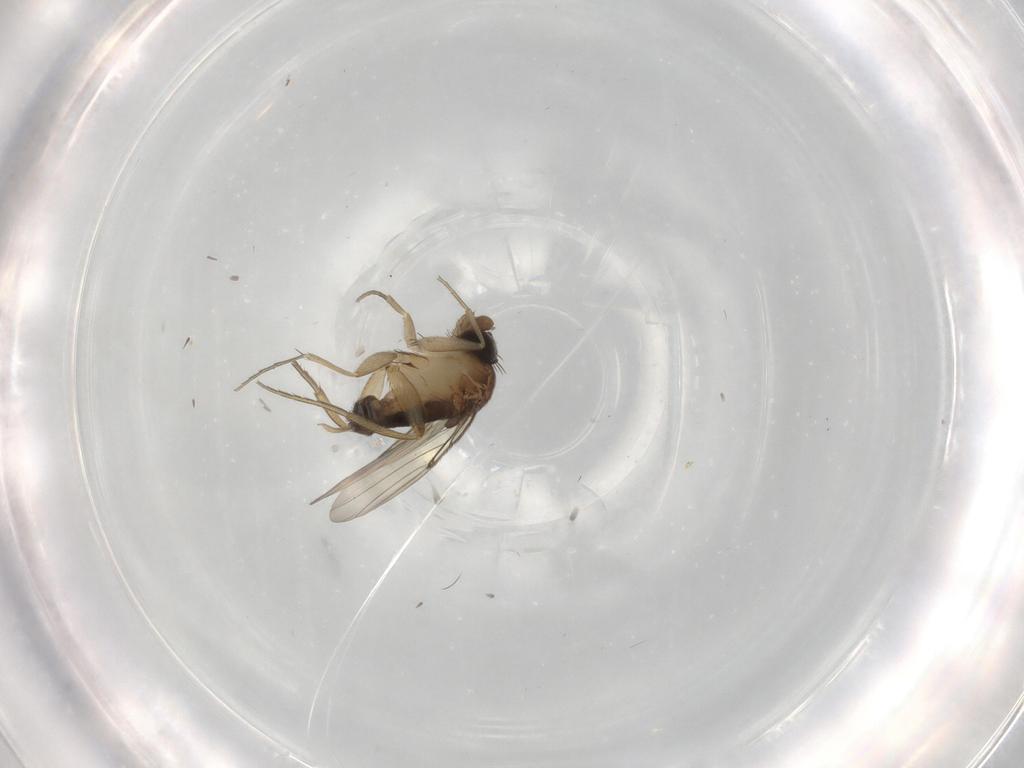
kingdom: Animalia
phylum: Arthropoda
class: Insecta
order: Diptera
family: Phoridae
